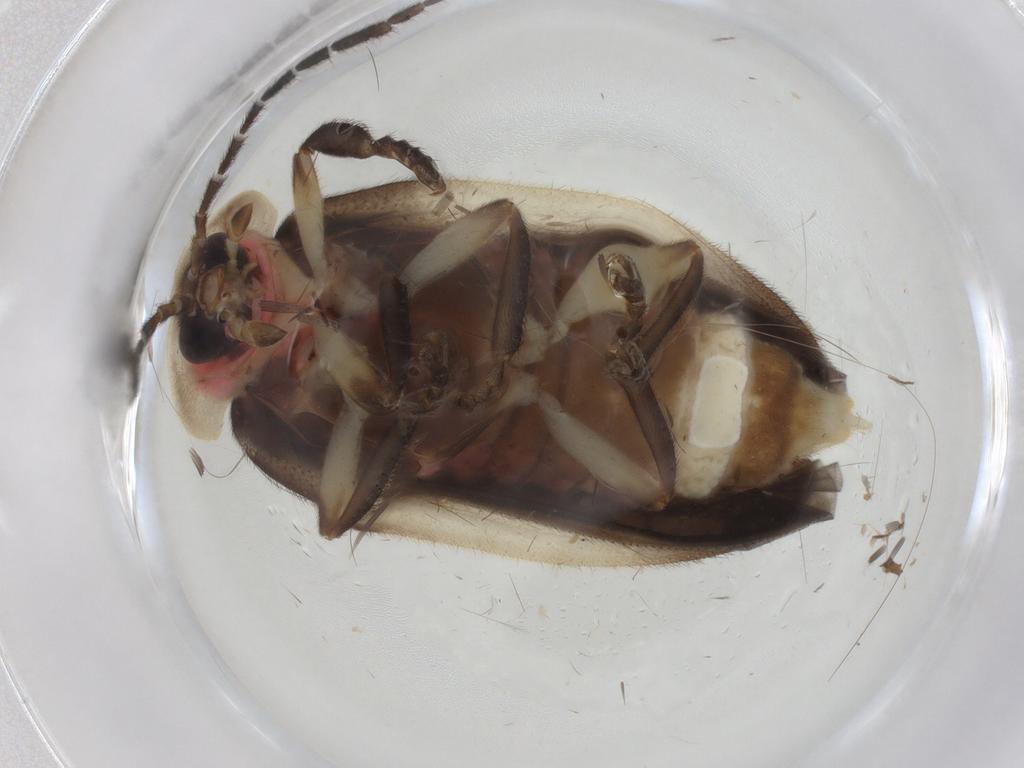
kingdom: Animalia
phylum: Arthropoda
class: Insecta
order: Coleoptera
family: Lampyridae
